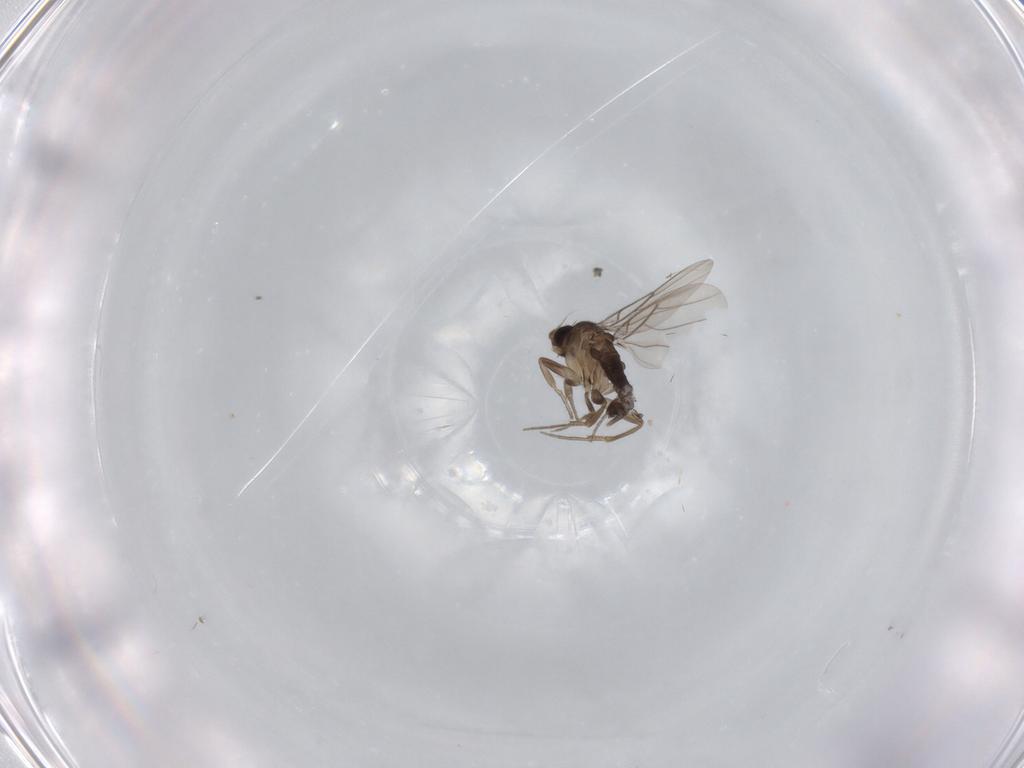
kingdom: Animalia
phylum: Arthropoda
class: Insecta
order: Diptera
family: Phoridae
